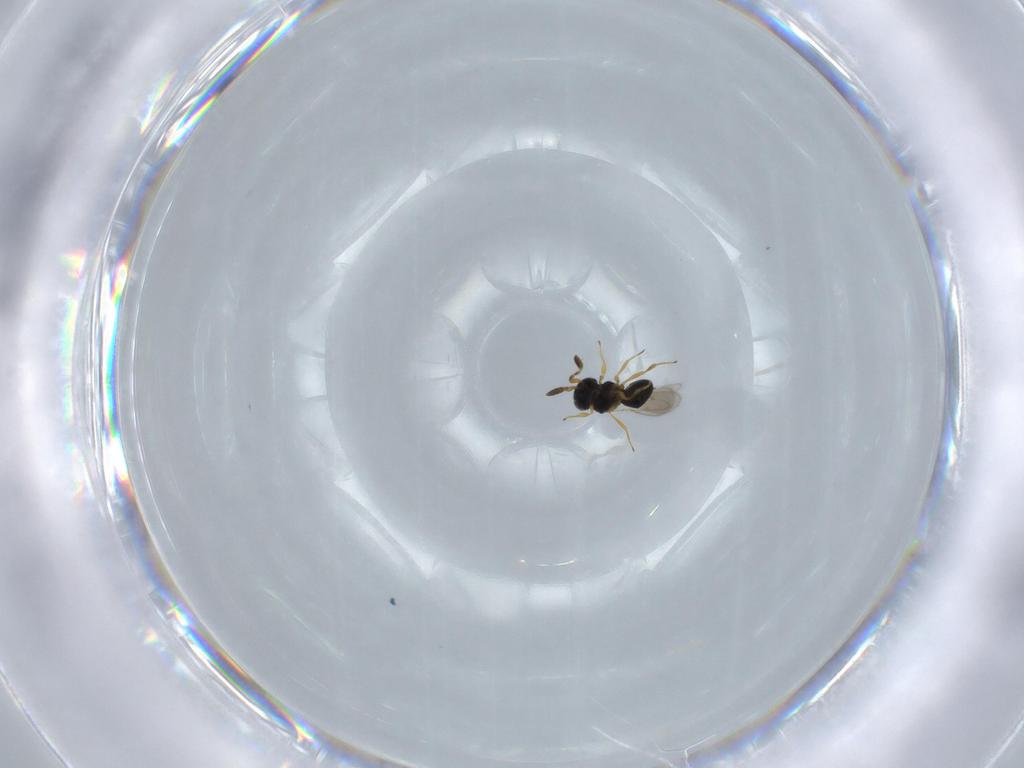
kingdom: Animalia
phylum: Arthropoda
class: Insecta
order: Hymenoptera
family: Scelionidae
